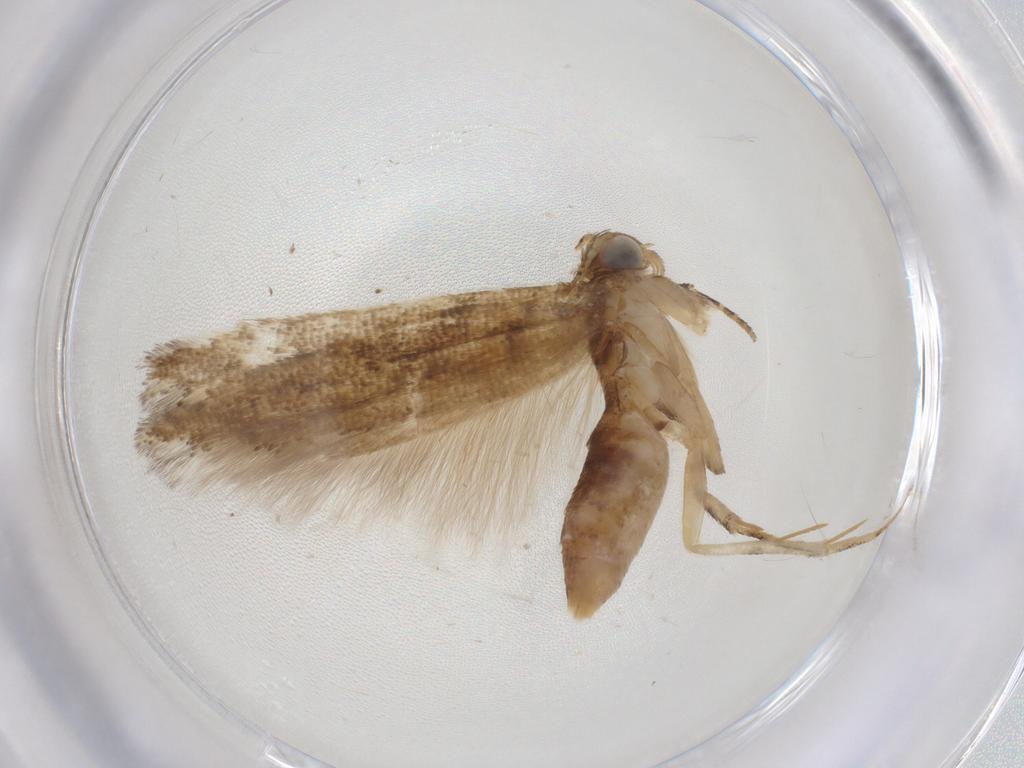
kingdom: Animalia
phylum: Arthropoda
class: Insecta
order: Lepidoptera
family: Gelechiidae
